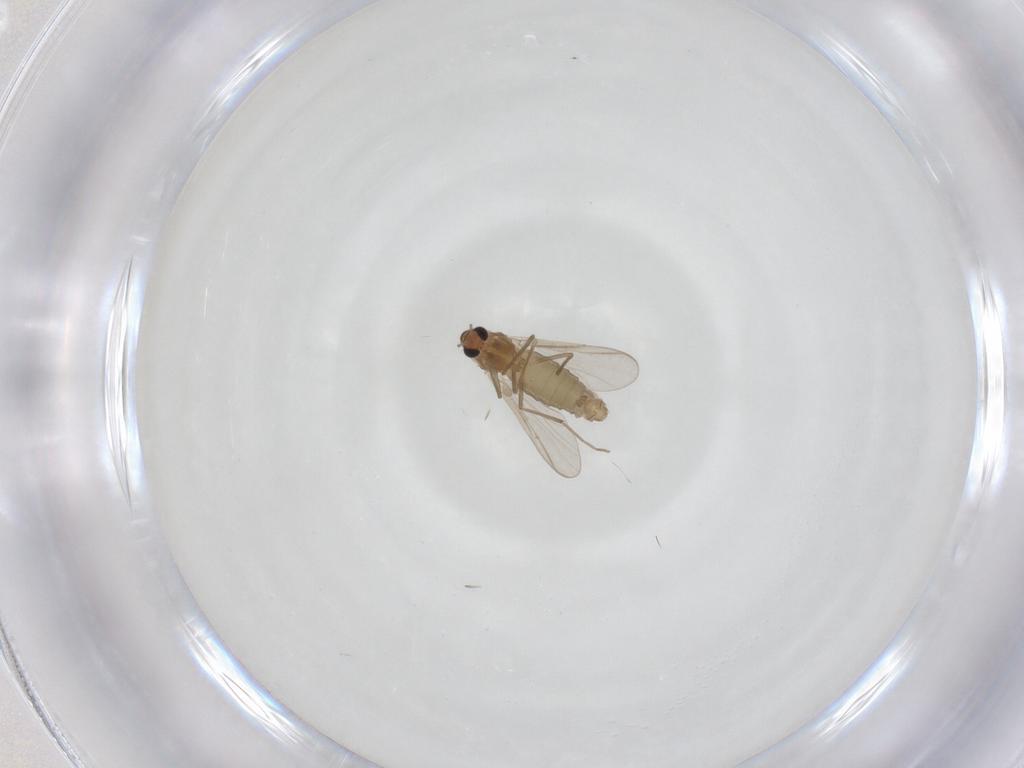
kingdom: Animalia
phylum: Arthropoda
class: Insecta
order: Diptera
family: Chironomidae
